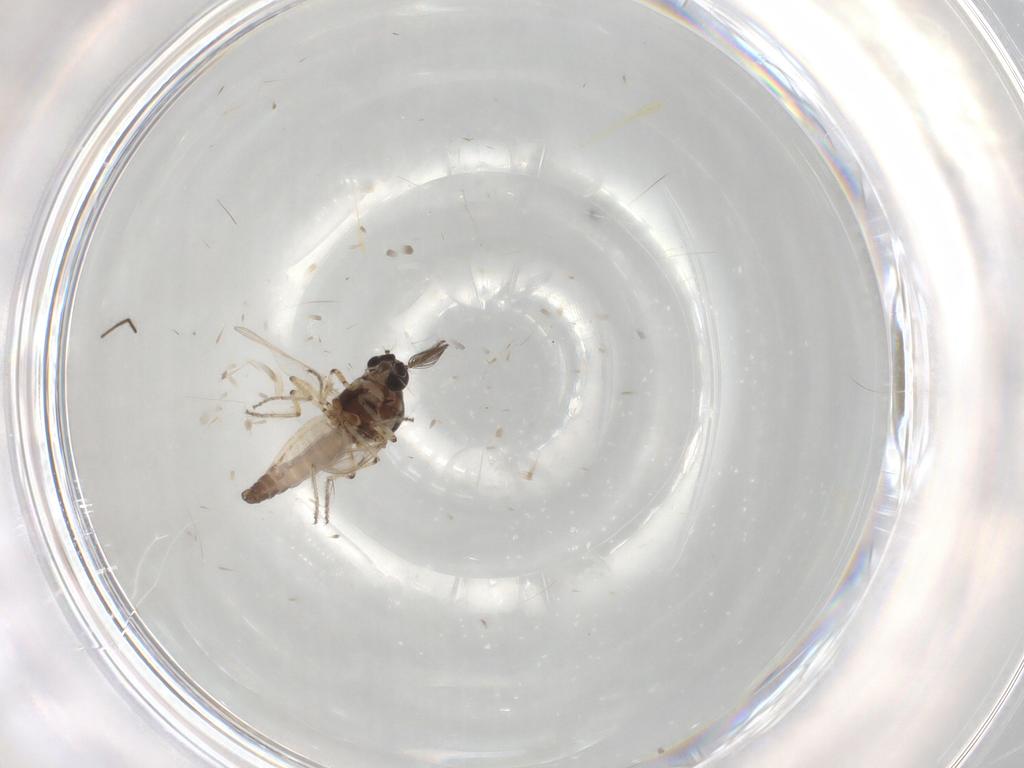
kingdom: Animalia
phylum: Arthropoda
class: Insecta
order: Diptera
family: Ceratopogonidae
